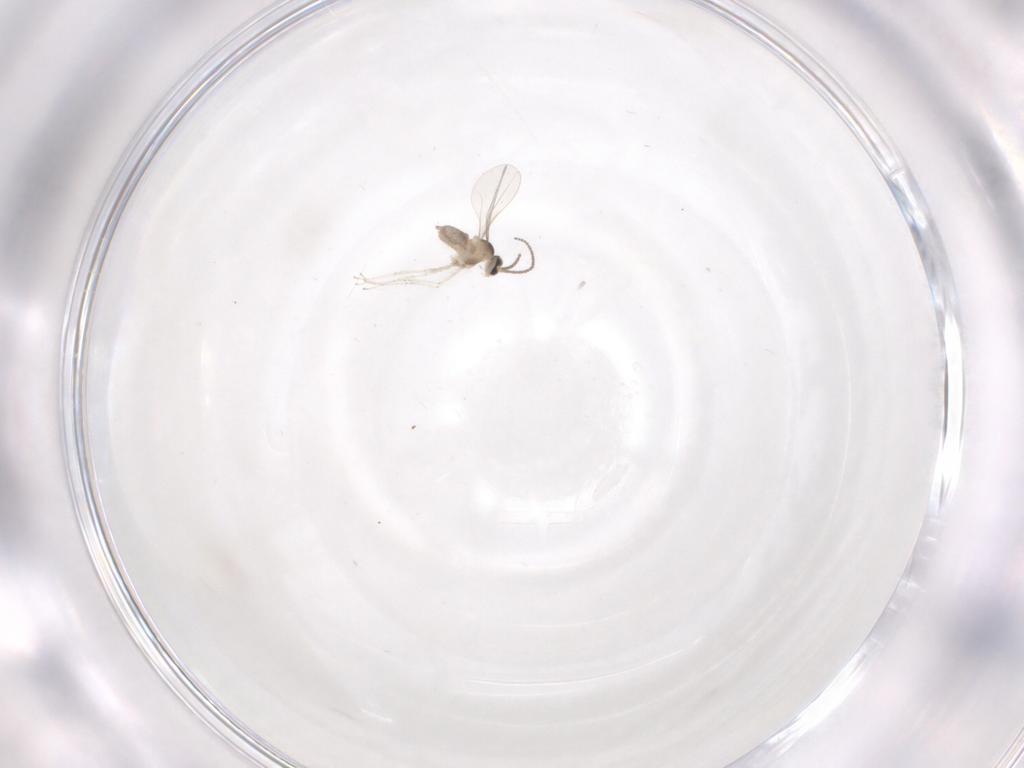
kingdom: Animalia
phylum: Arthropoda
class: Insecta
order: Diptera
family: Cecidomyiidae
